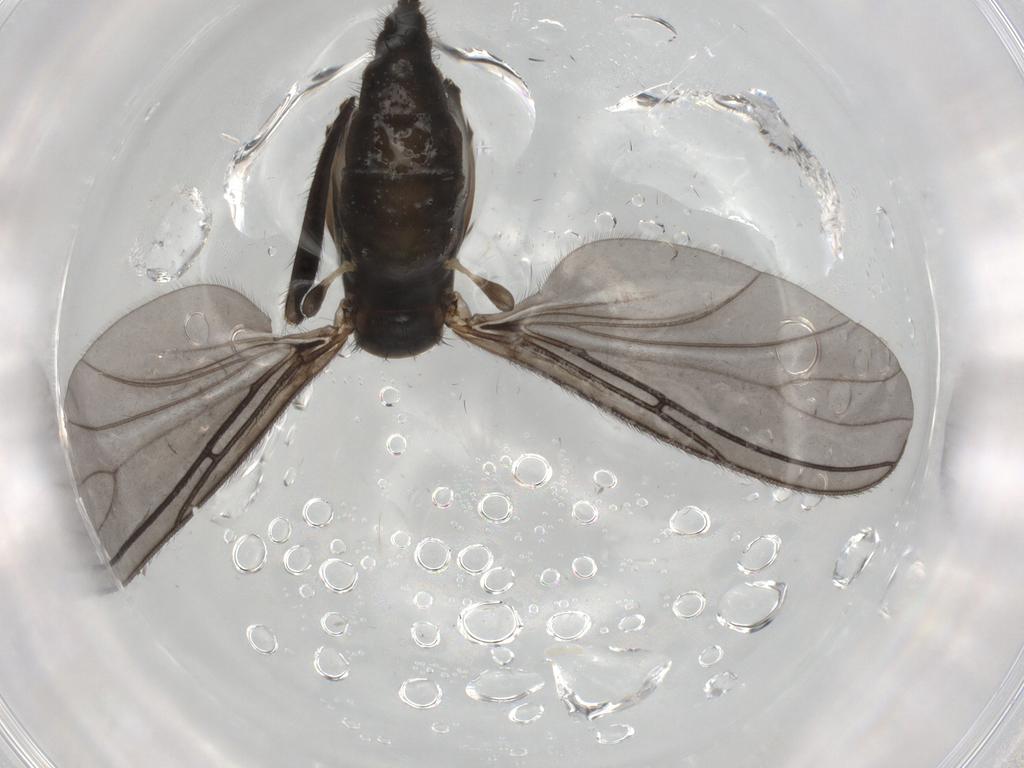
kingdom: Animalia
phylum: Arthropoda
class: Insecta
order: Diptera
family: Sciaridae
